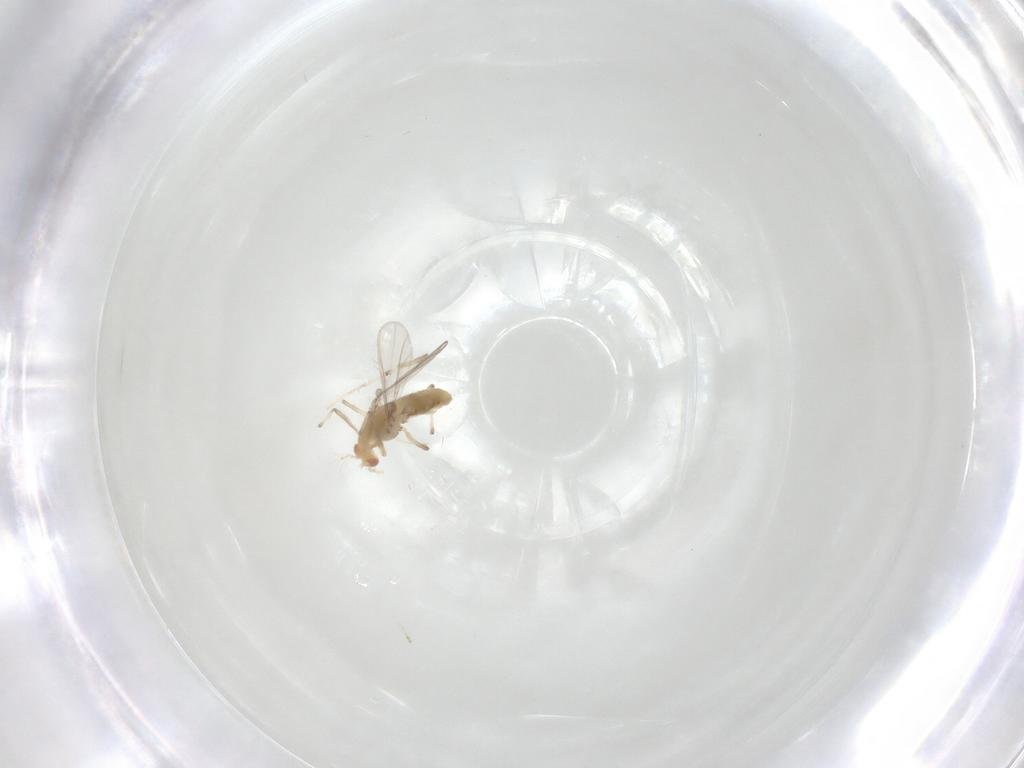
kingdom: Animalia
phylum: Arthropoda
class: Insecta
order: Diptera
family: Chironomidae
